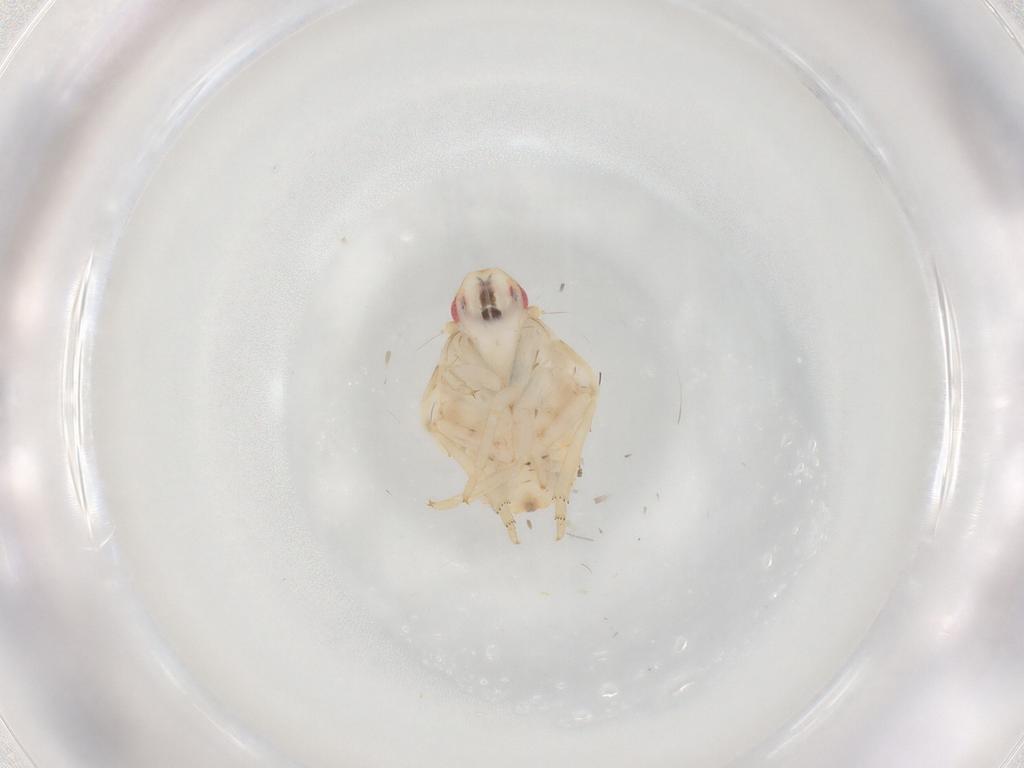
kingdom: Animalia
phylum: Arthropoda
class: Insecta
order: Hemiptera
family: Flatidae
